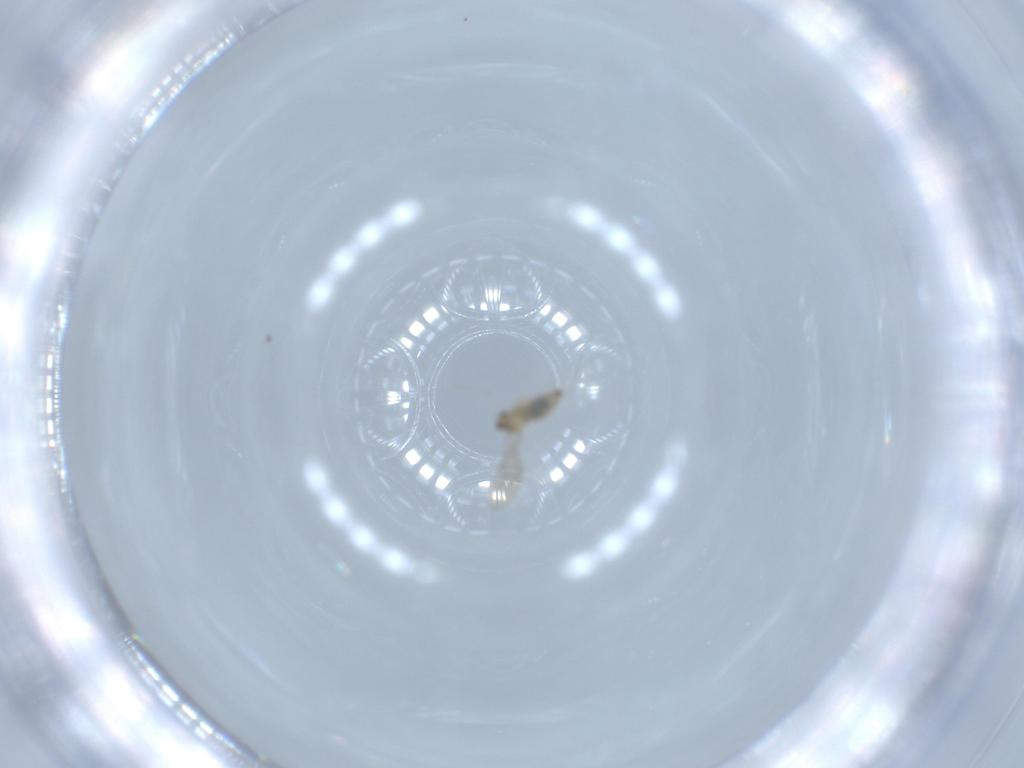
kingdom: Animalia
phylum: Arthropoda
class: Insecta
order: Diptera
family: Cecidomyiidae
